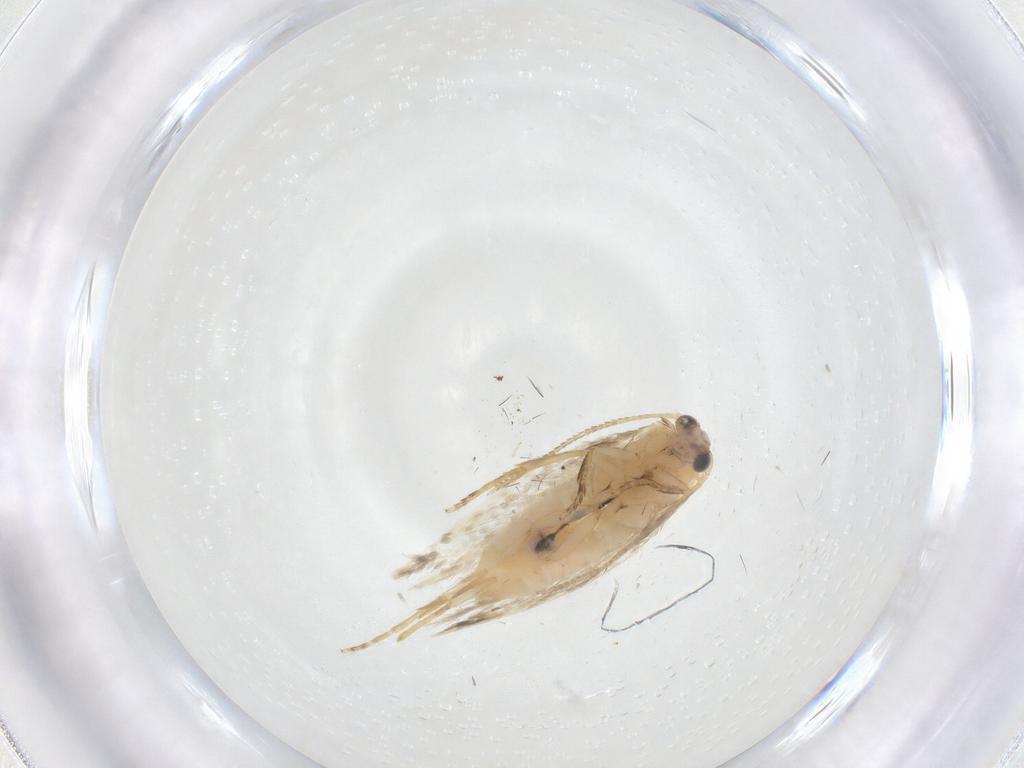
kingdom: Animalia
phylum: Arthropoda
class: Insecta
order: Lepidoptera
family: Nepticulidae
